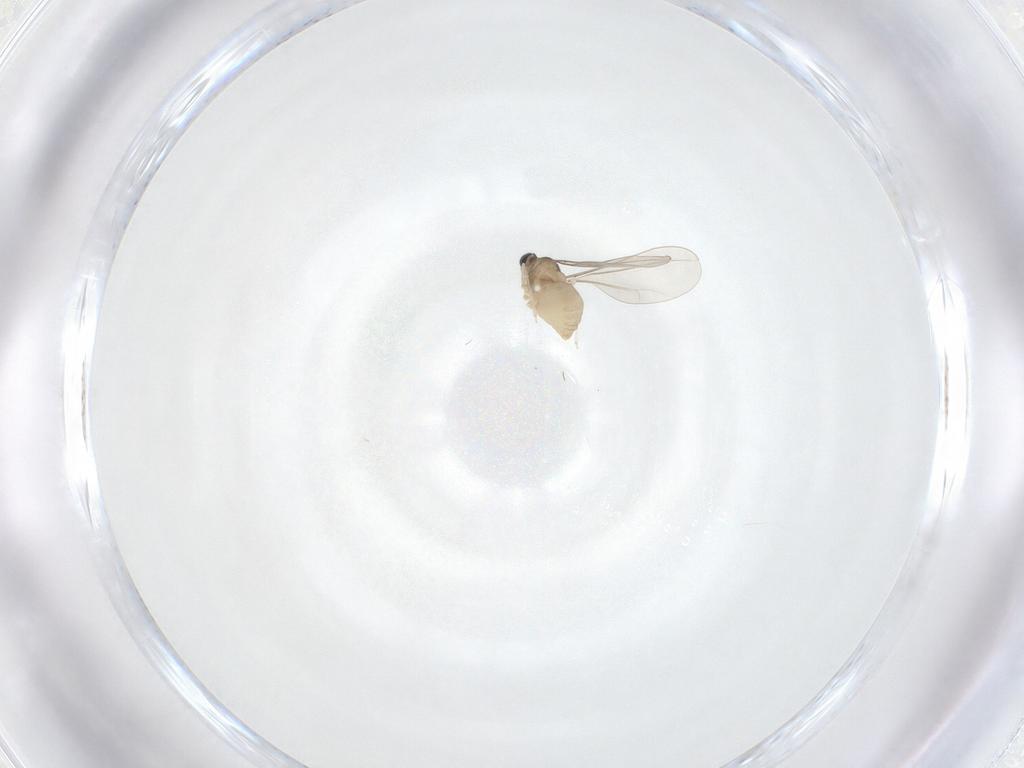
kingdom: Animalia
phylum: Arthropoda
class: Insecta
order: Diptera
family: Sciaridae
